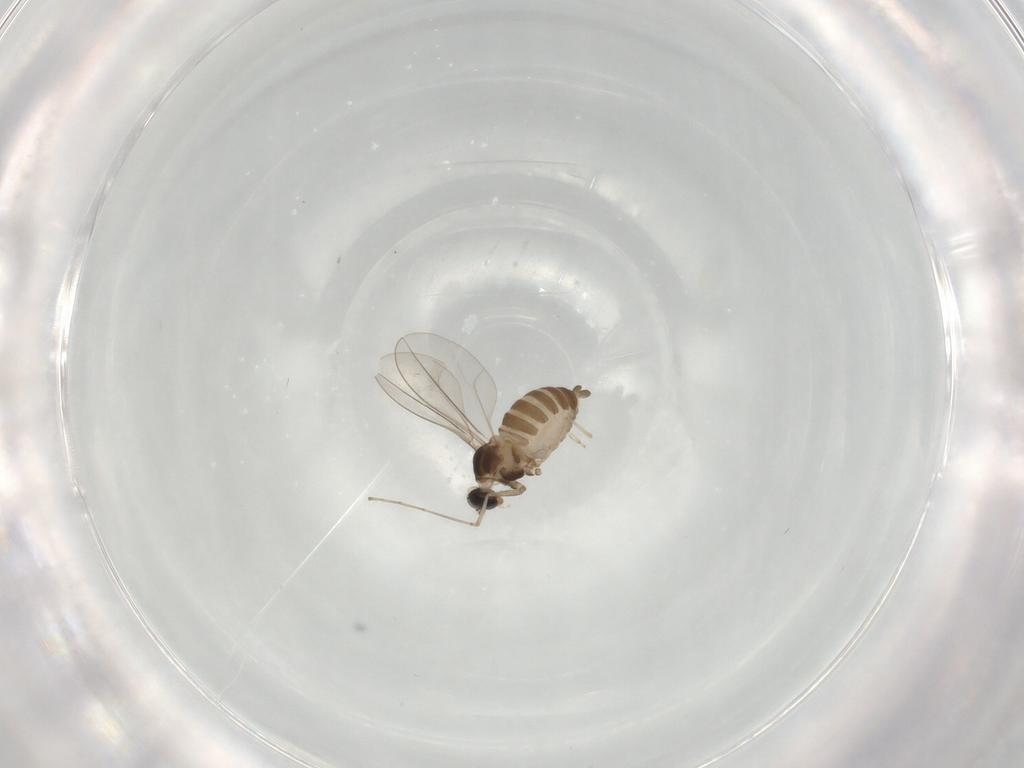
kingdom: Animalia
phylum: Arthropoda
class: Insecta
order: Diptera
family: Cecidomyiidae
